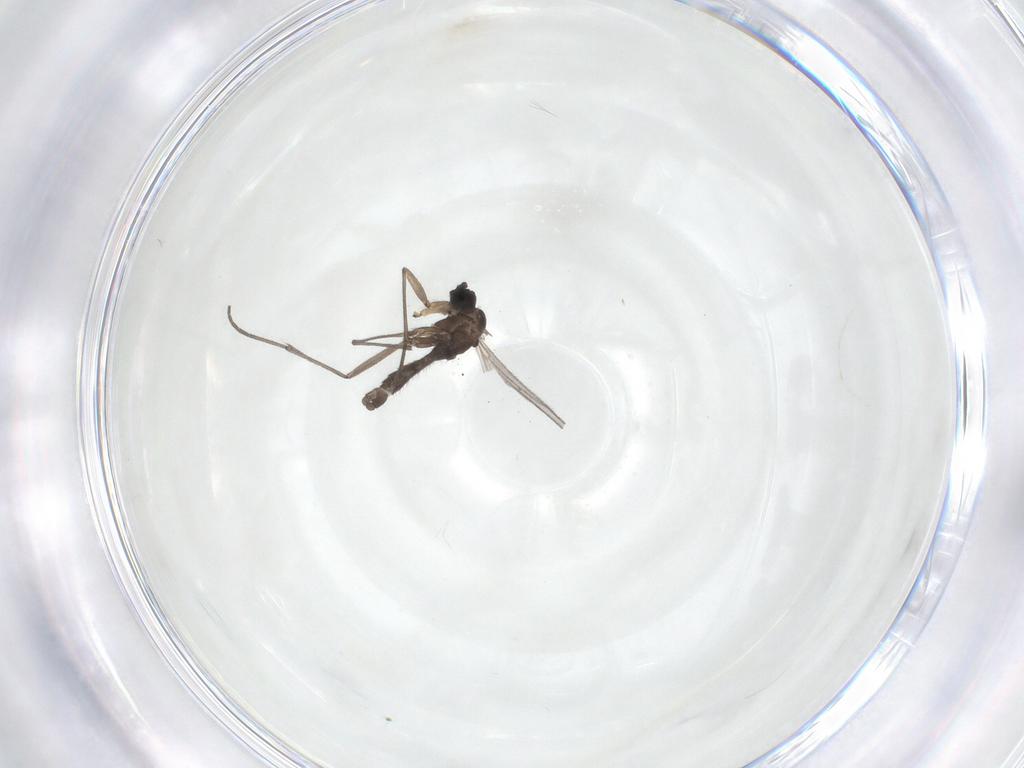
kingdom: Animalia
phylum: Arthropoda
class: Insecta
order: Diptera
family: Sciaridae
